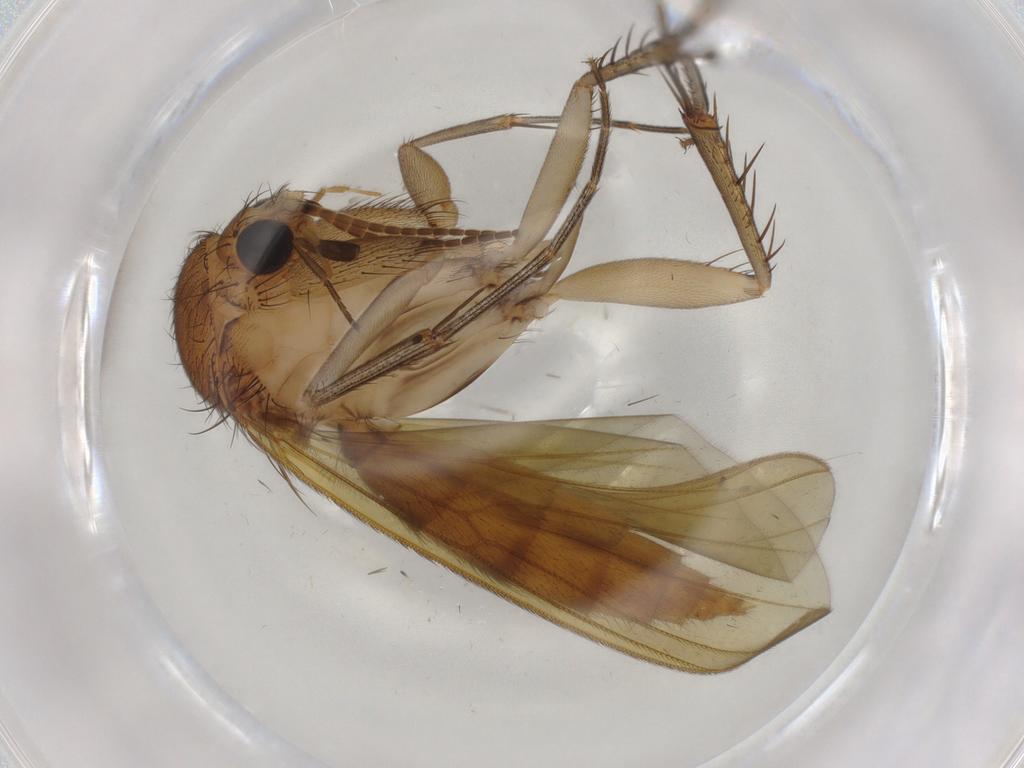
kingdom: Animalia
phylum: Arthropoda
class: Insecta
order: Diptera
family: Mycetophilidae
